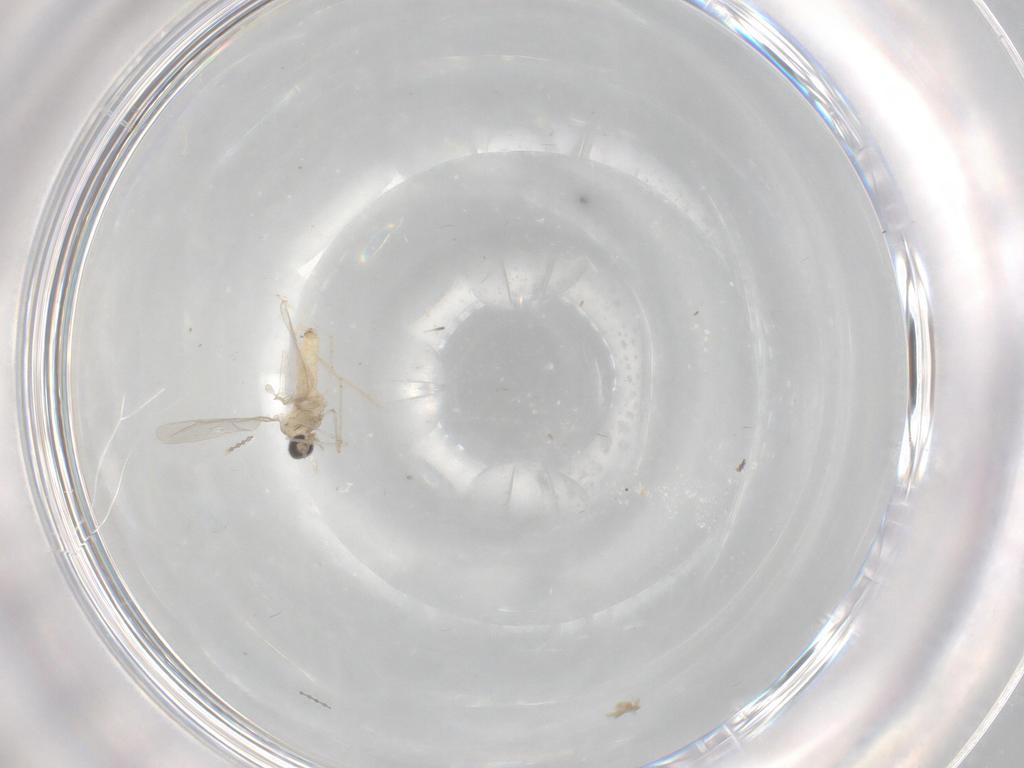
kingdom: Animalia
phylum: Arthropoda
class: Insecta
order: Diptera
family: Cecidomyiidae
